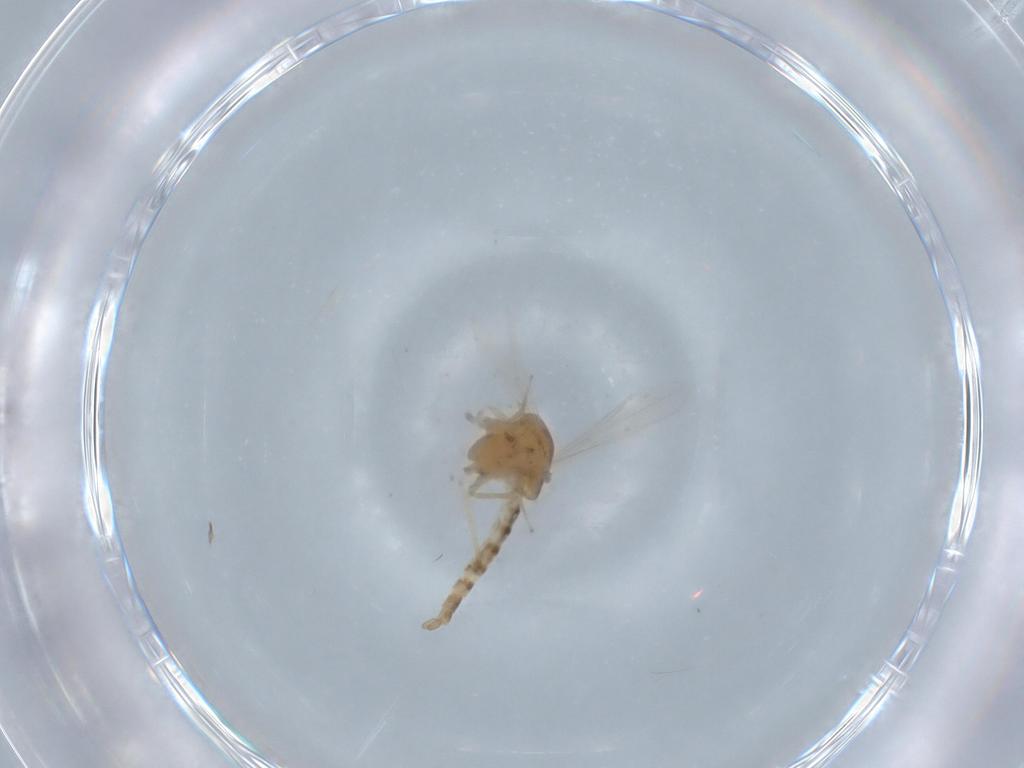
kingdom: Animalia
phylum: Arthropoda
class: Insecta
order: Diptera
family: Chironomidae
